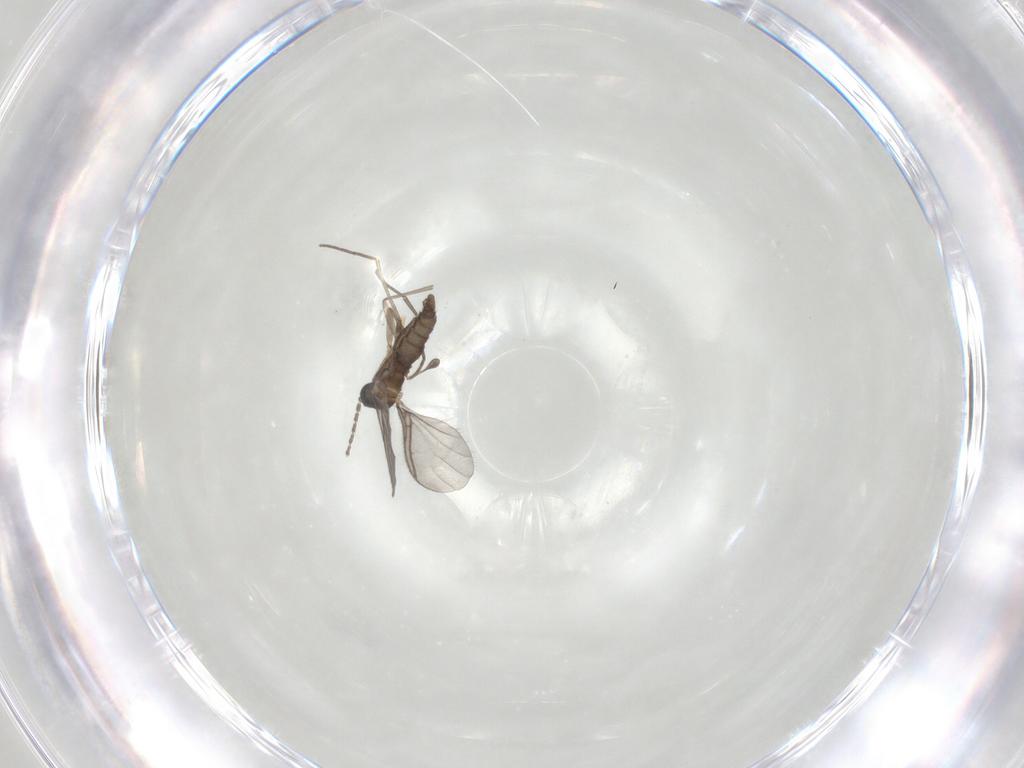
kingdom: Animalia
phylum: Arthropoda
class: Insecta
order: Diptera
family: Cecidomyiidae
